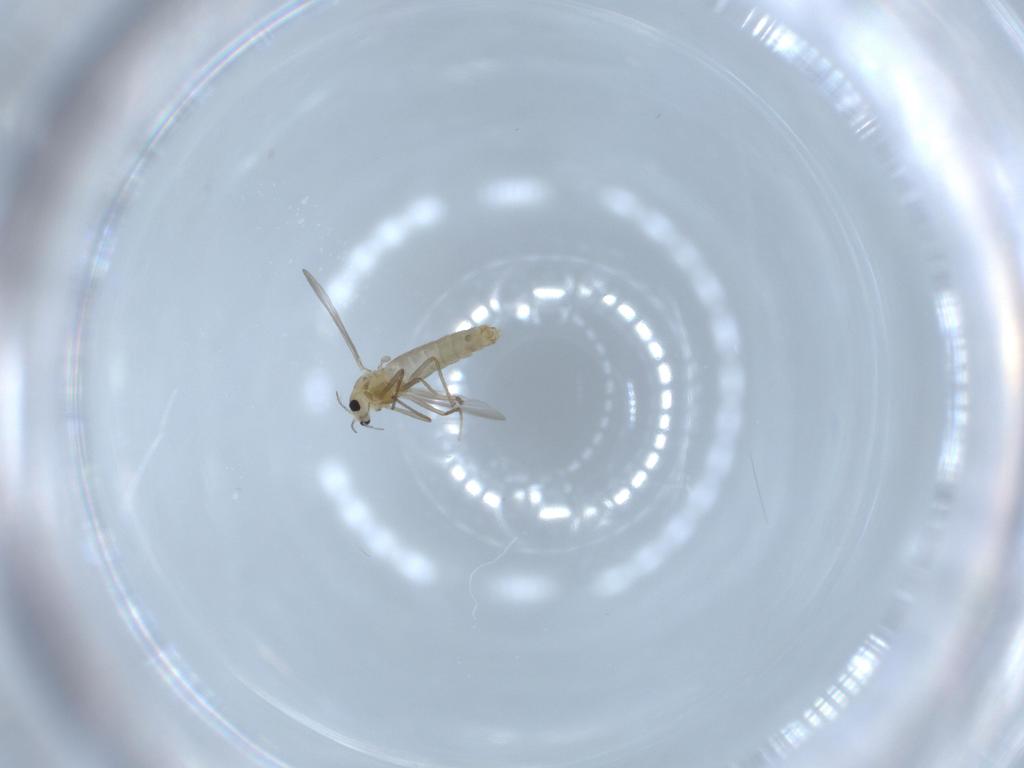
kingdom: Animalia
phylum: Arthropoda
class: Insecta
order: Diptera
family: Chironomidae
